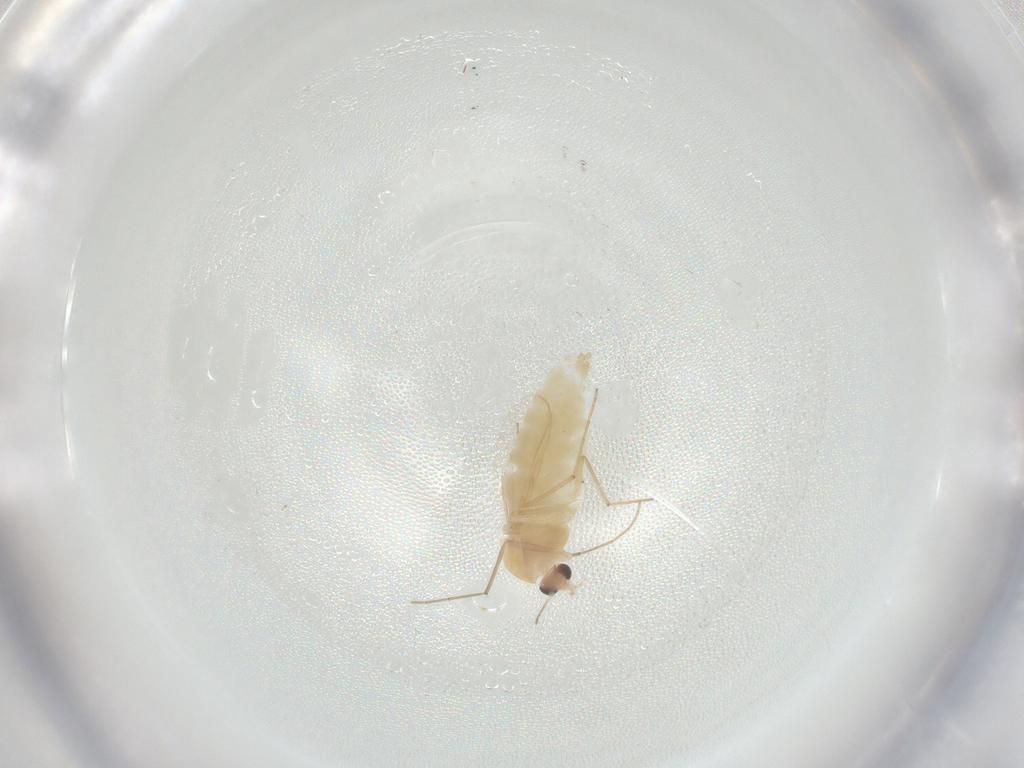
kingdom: Animalia
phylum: Arthropoda
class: Insecta
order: Diptera
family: Chironomidae
